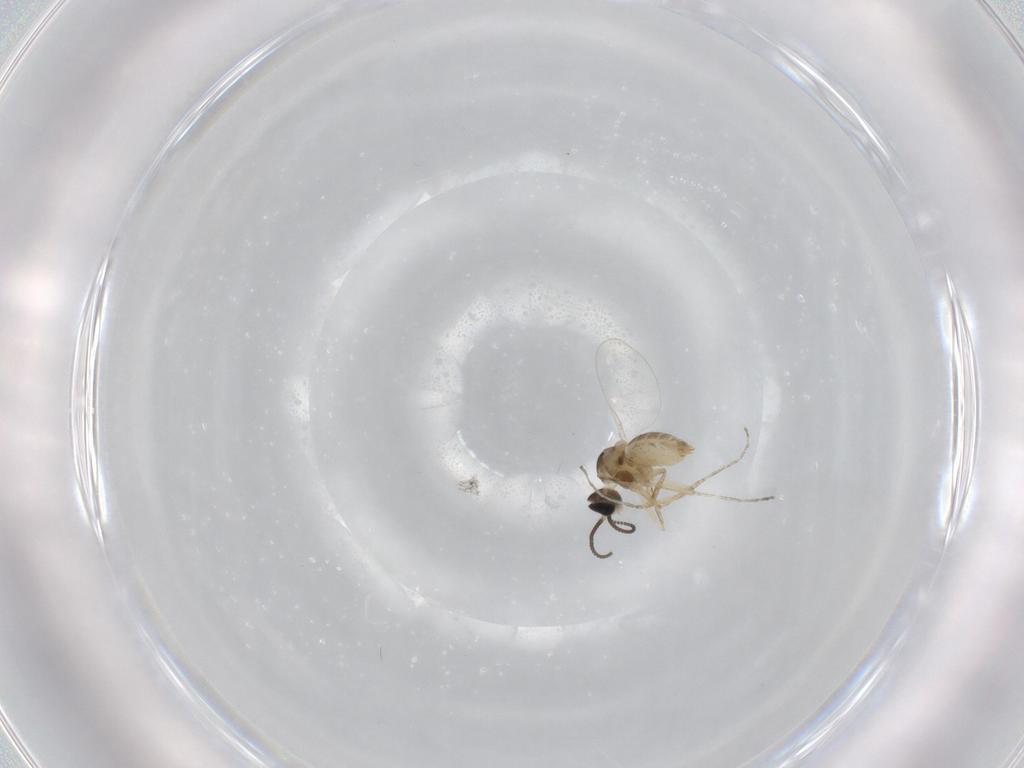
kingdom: Animalia
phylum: Arthropoda
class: Insecta
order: Diptera
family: Cecidomyiidae
